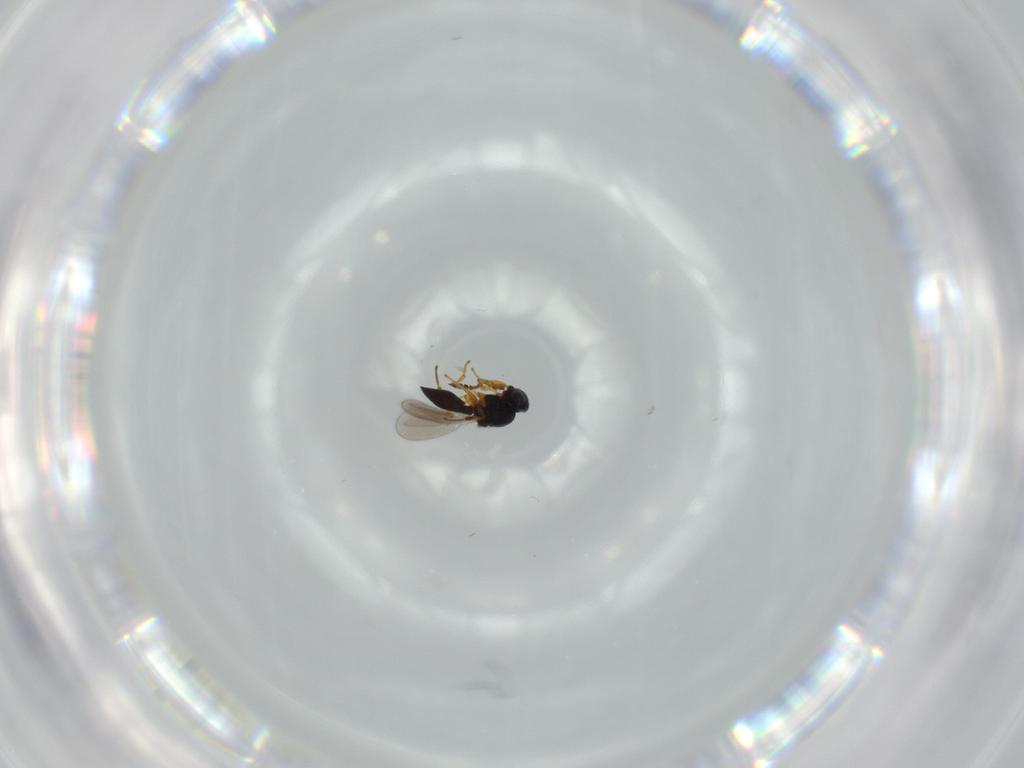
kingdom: Animalia
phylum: Arthropoda
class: Insecta
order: Hymenoptera
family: Platygastridae
